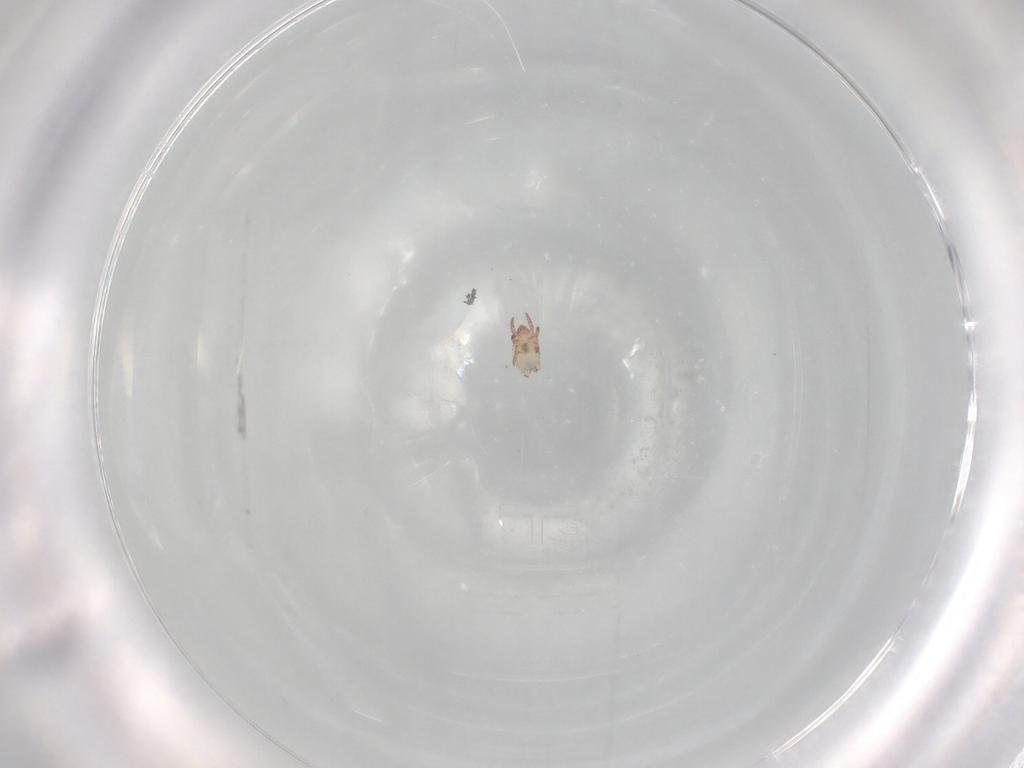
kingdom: Animalia
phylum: Arthropoda
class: Arachnida
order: Sarcoptiformes
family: Crotoniidae
